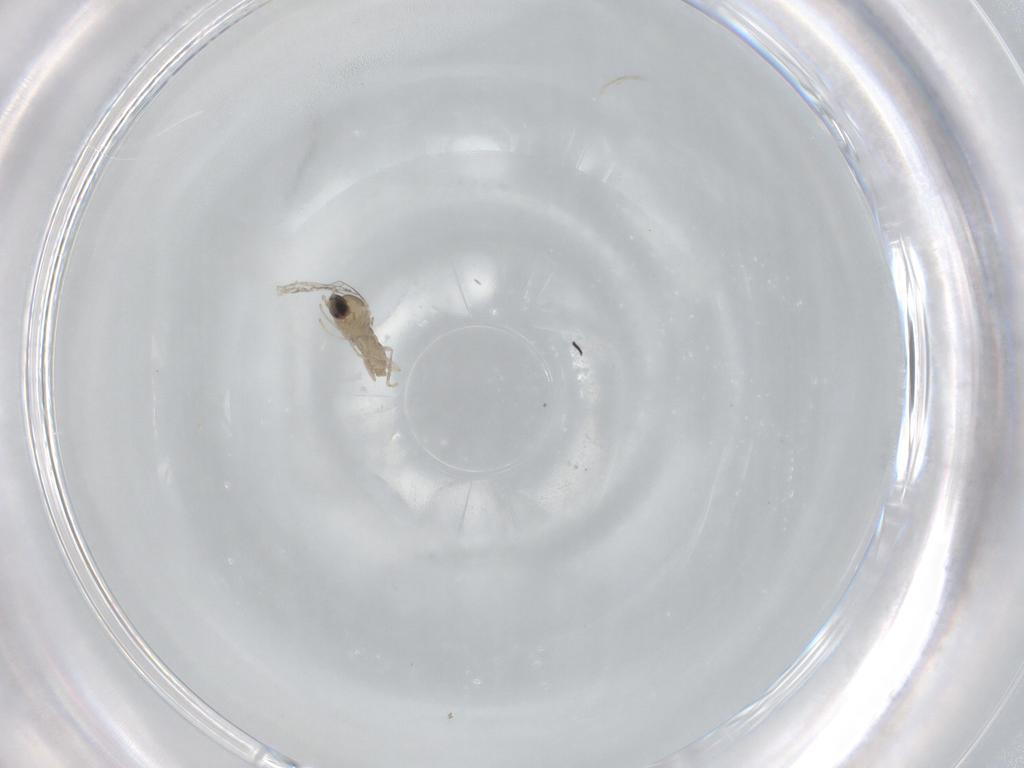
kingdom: Animalia
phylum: Arthropoda
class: Insecta
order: Diptera
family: Cecidomyiidae
